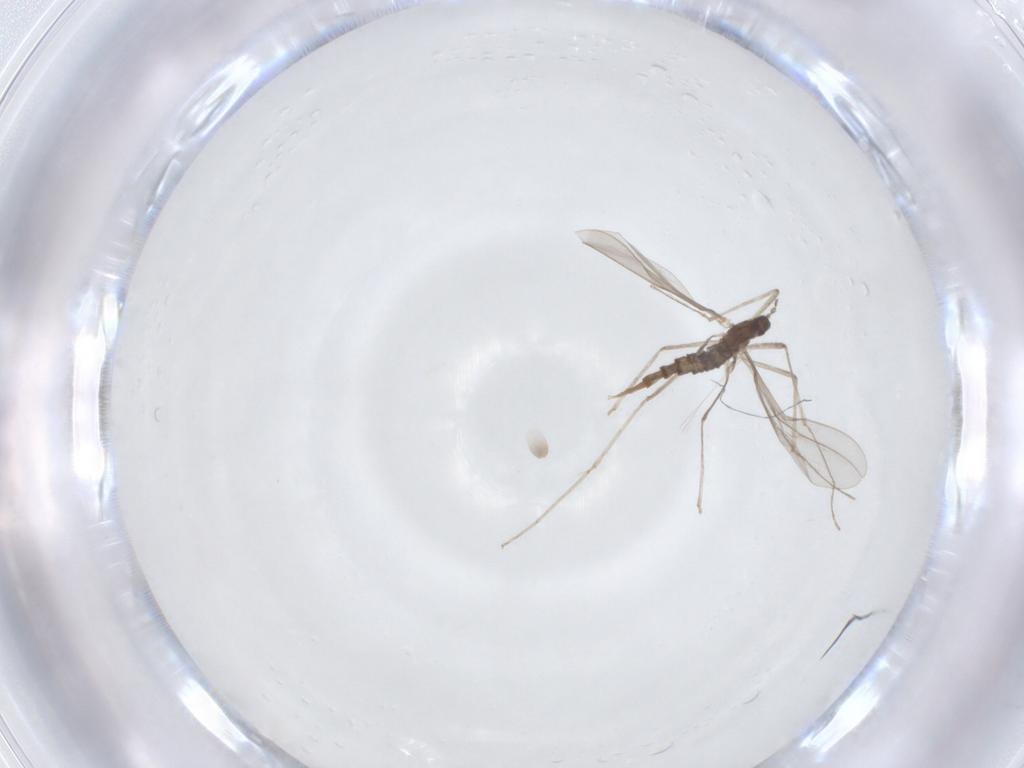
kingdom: Animalia
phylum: Arthropoda
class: Insecta
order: Diptera
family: Cecidomyiidae
